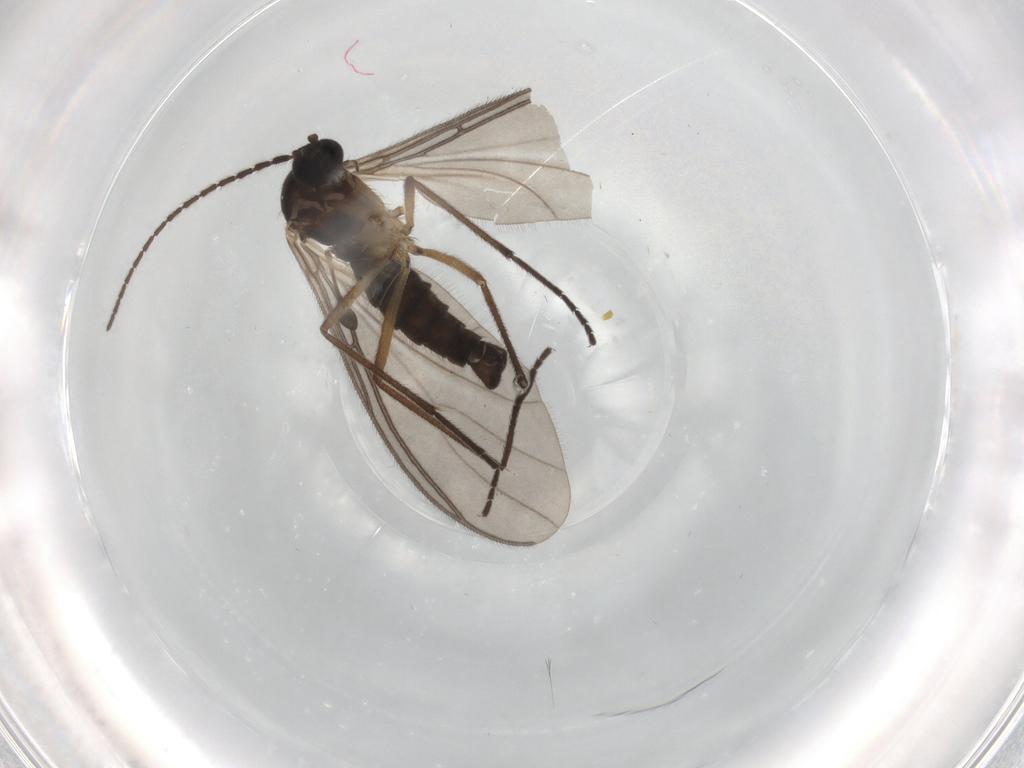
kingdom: Animalia
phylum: Arthropoda
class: Insecta
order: Diptera
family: Sciaridae
